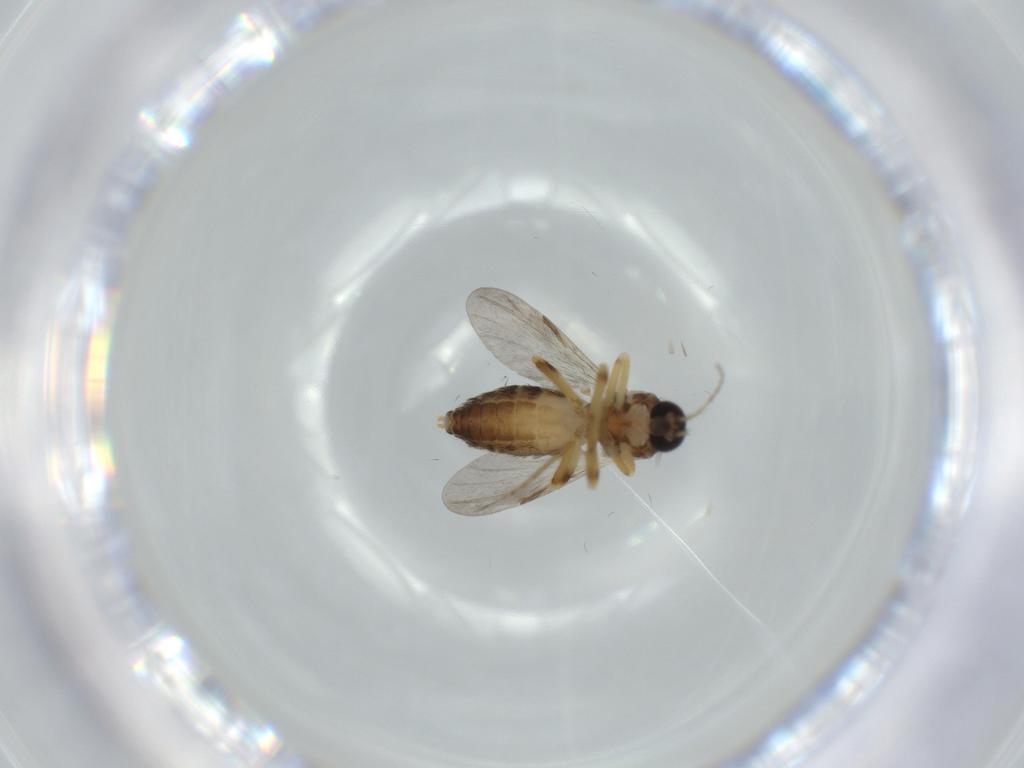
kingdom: Animalia
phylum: Arthropoda
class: Insecta
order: Diptera
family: Ceratopogonidae
